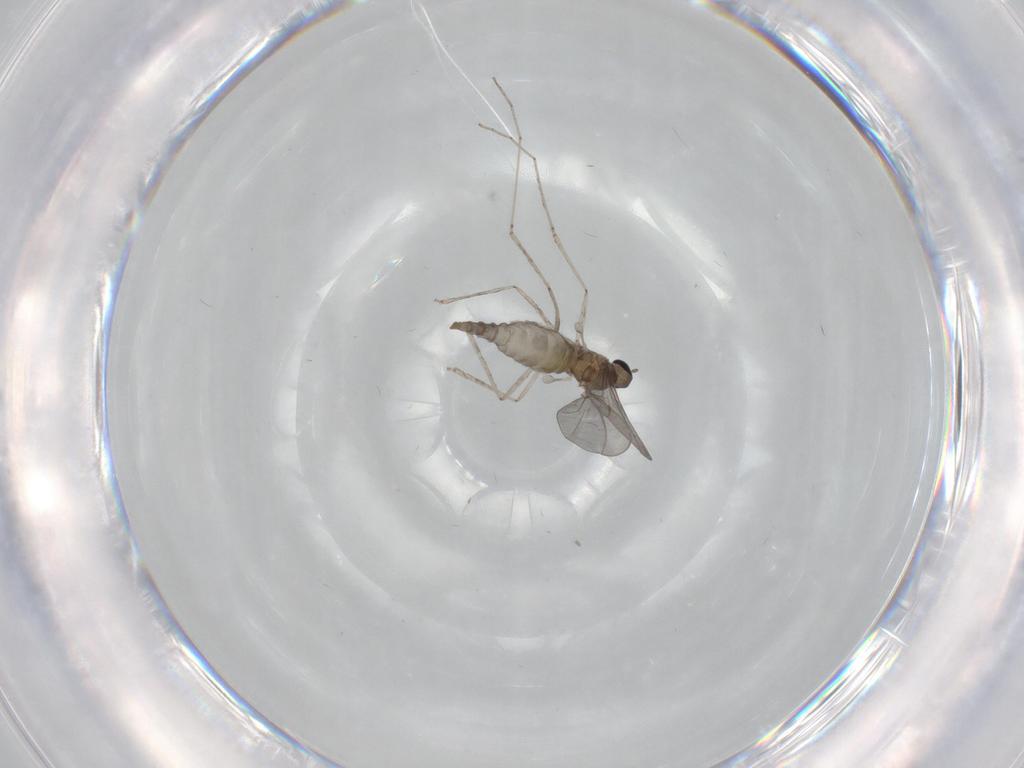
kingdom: Animalia
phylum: Arthropoda
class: Insecta
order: Diptera
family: Cecidomyiidae
